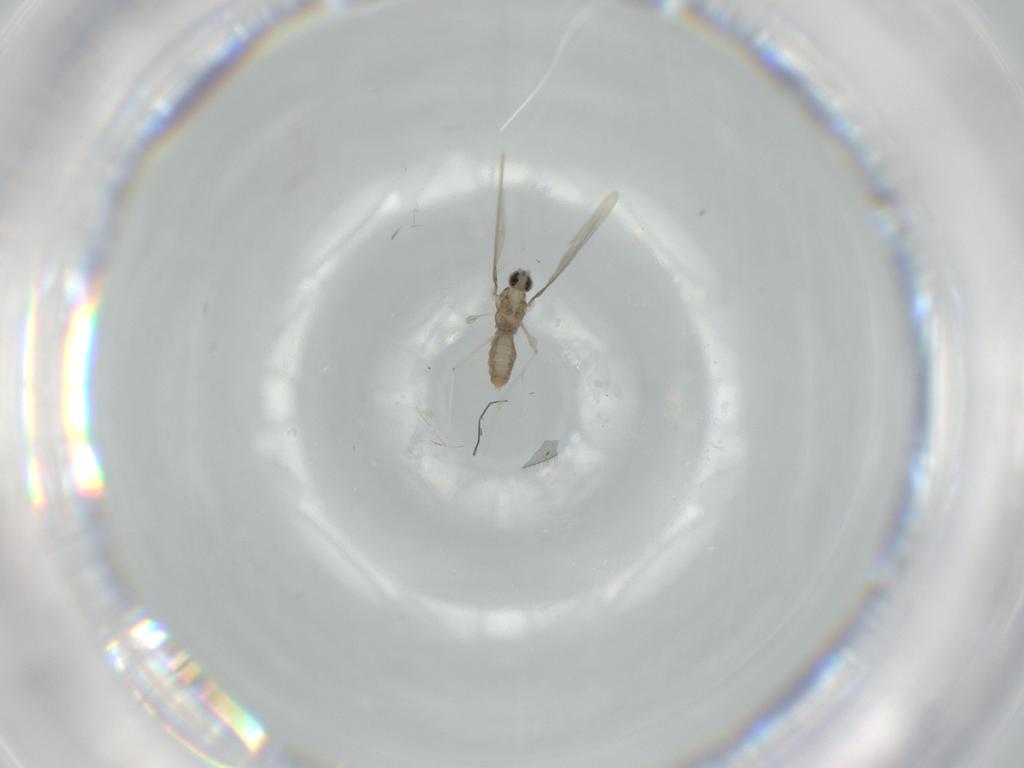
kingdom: Animalia
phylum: Arthropoda
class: Insecta
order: Diptera
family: Cecidomyiidae
